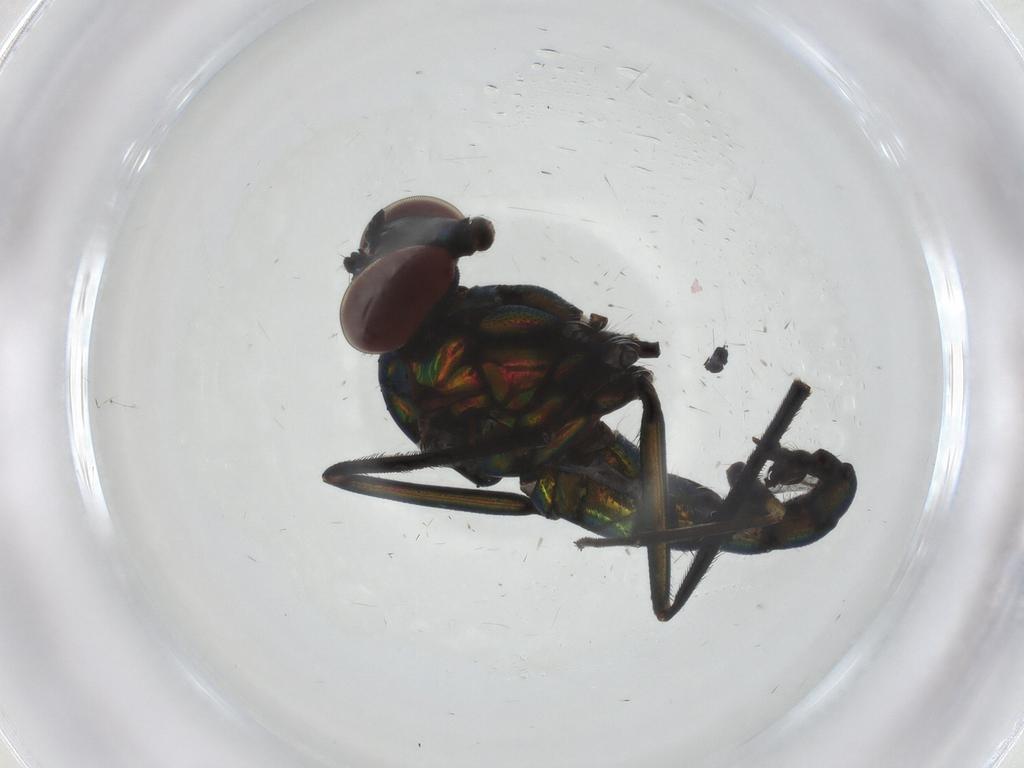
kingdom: Animalia
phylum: Arthropoda
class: Insecta
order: Diptera
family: Dolichopodidae
